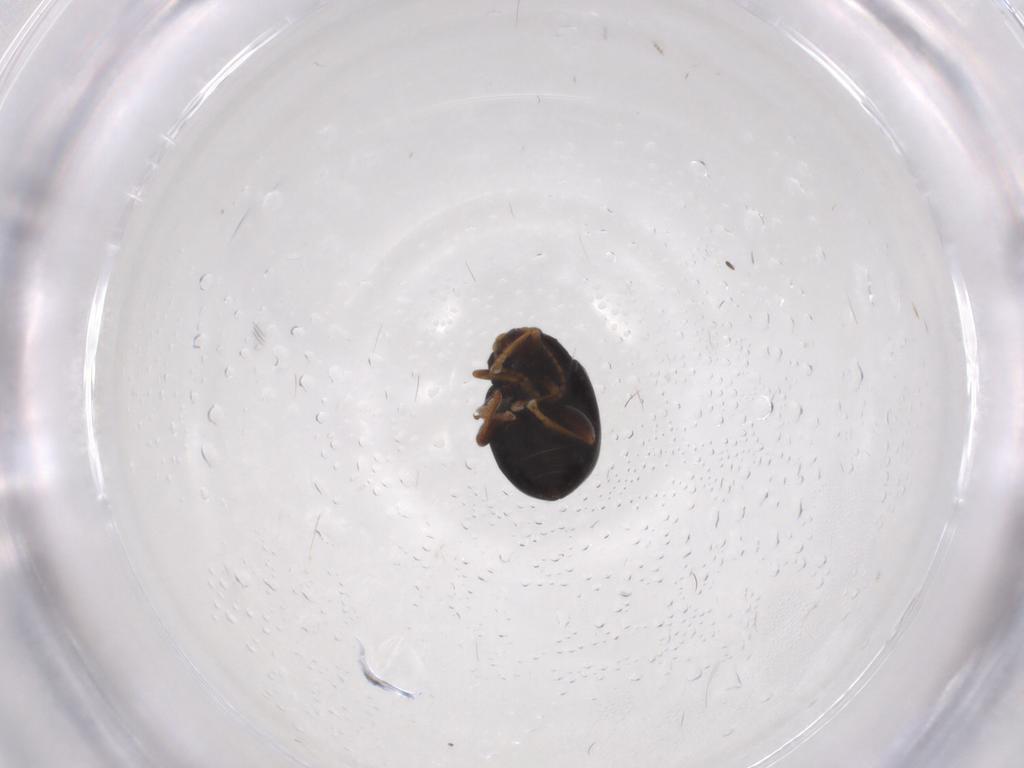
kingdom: Animalia
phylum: Arthropoda
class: Insecta
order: Coleoptera
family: Chrysomelidae
